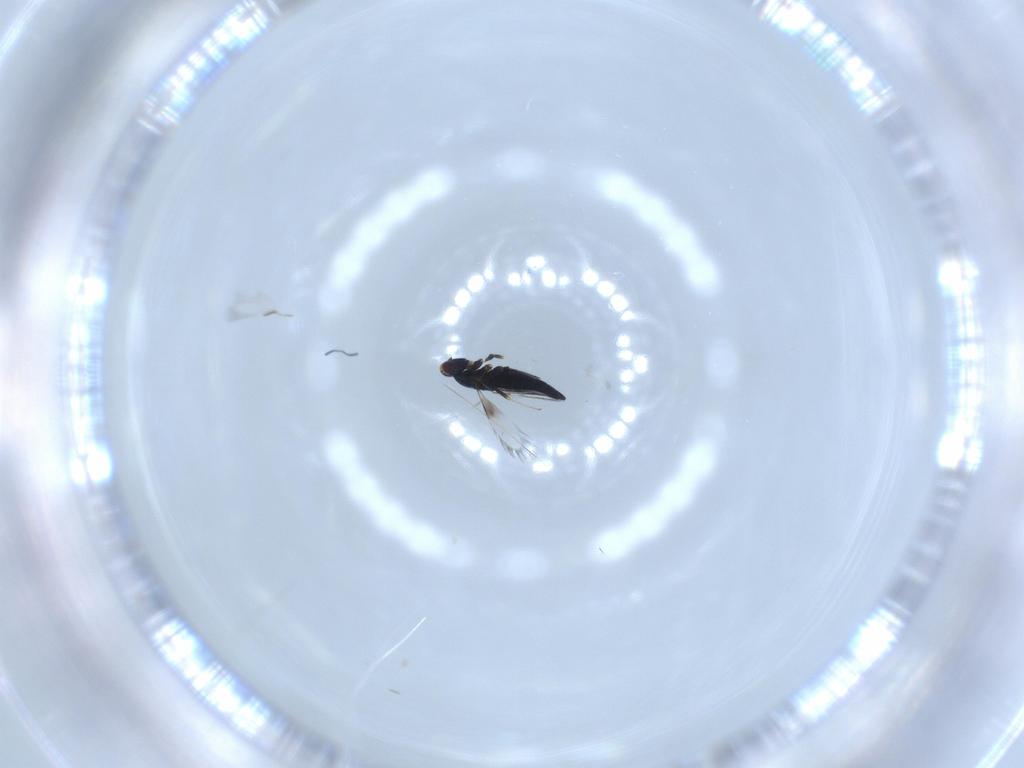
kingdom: Animalia
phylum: Arthropoda
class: Insecta
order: Hymenoptera
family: Signiphoridae
